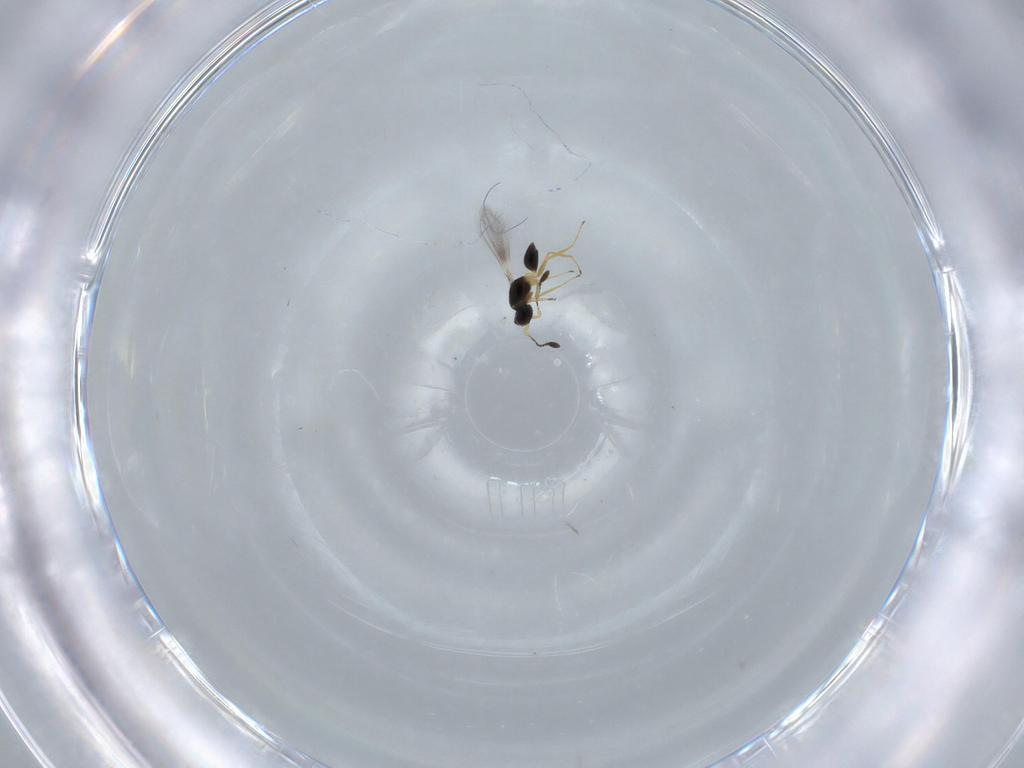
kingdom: Animalia
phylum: Arthropoda
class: Insecta
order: Hymenoptera
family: Mymaridae
